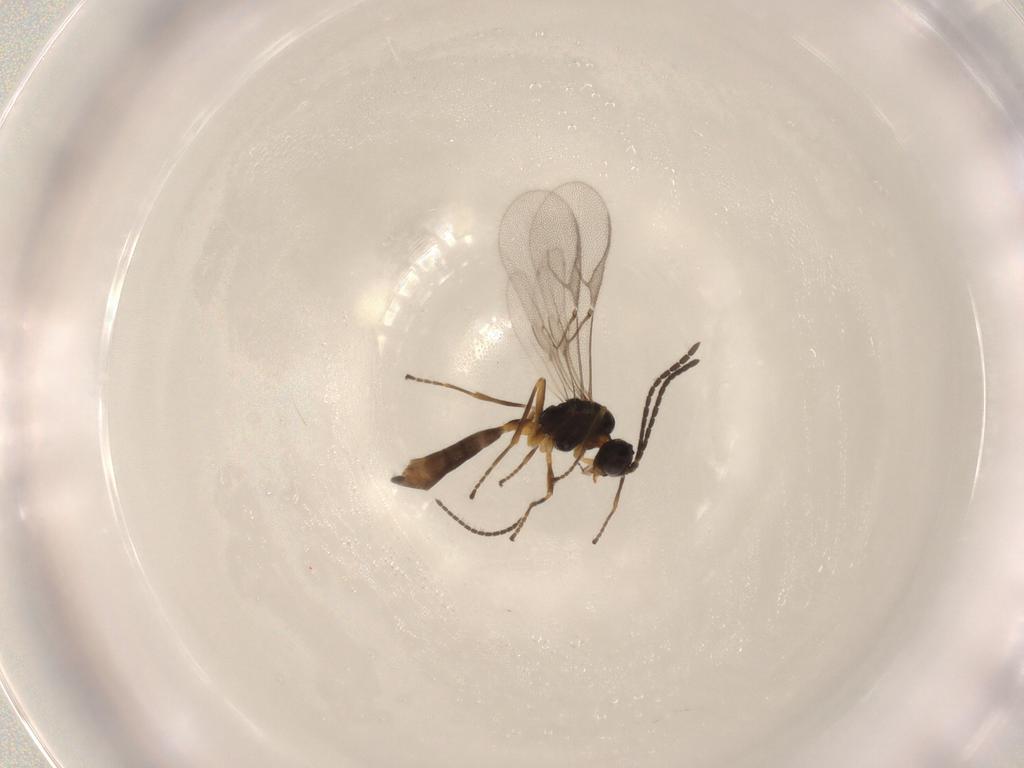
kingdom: Animalia
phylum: Arthropoda
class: Insecta
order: Hymenoptera
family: Braconidae
